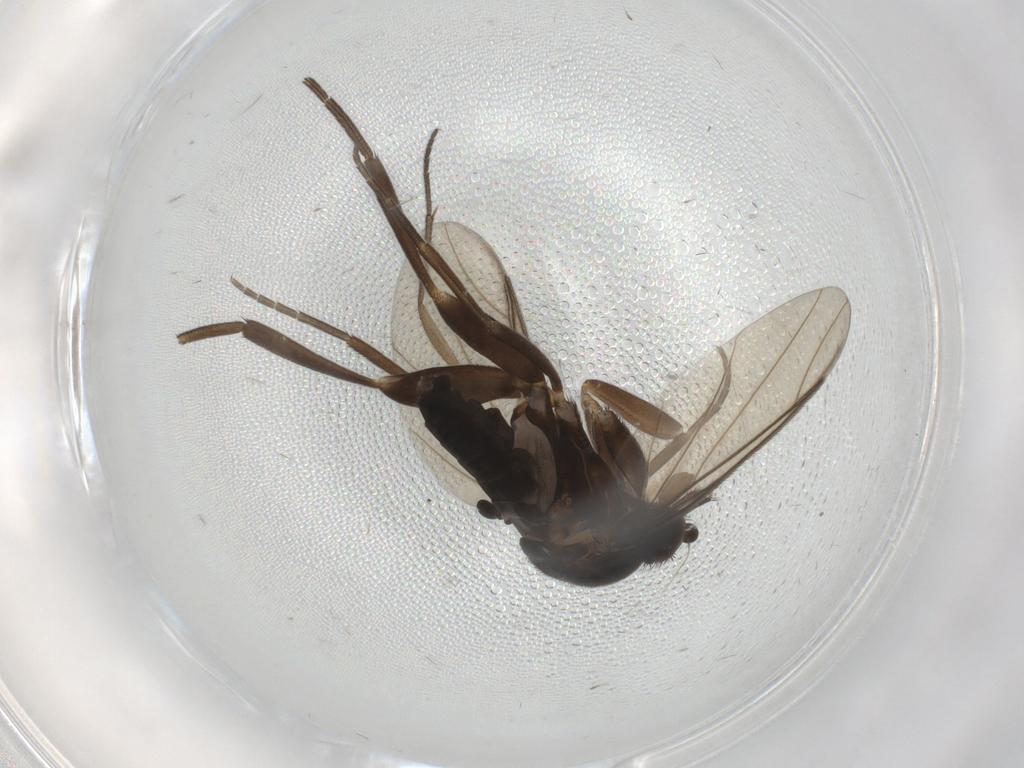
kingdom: Animalia
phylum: Arthropoda
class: Insecta
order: Diptera
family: Phoridae
